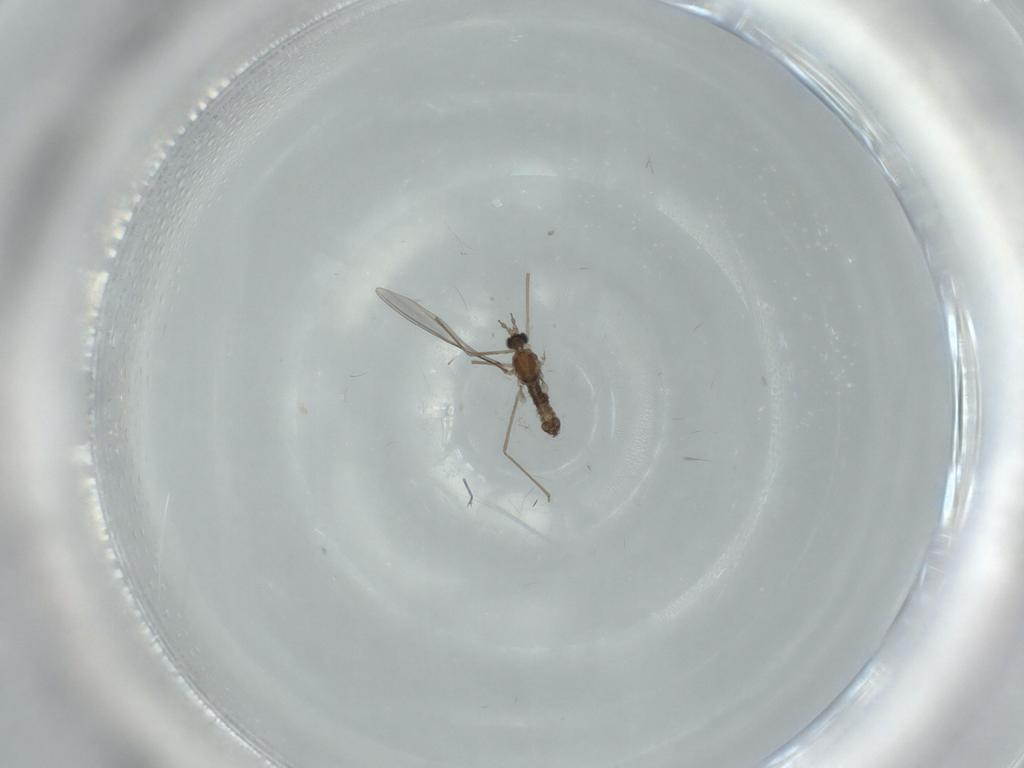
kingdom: Animalia
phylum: Arthropoda
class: Insecta
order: Diptera
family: Cecidomyiidae
